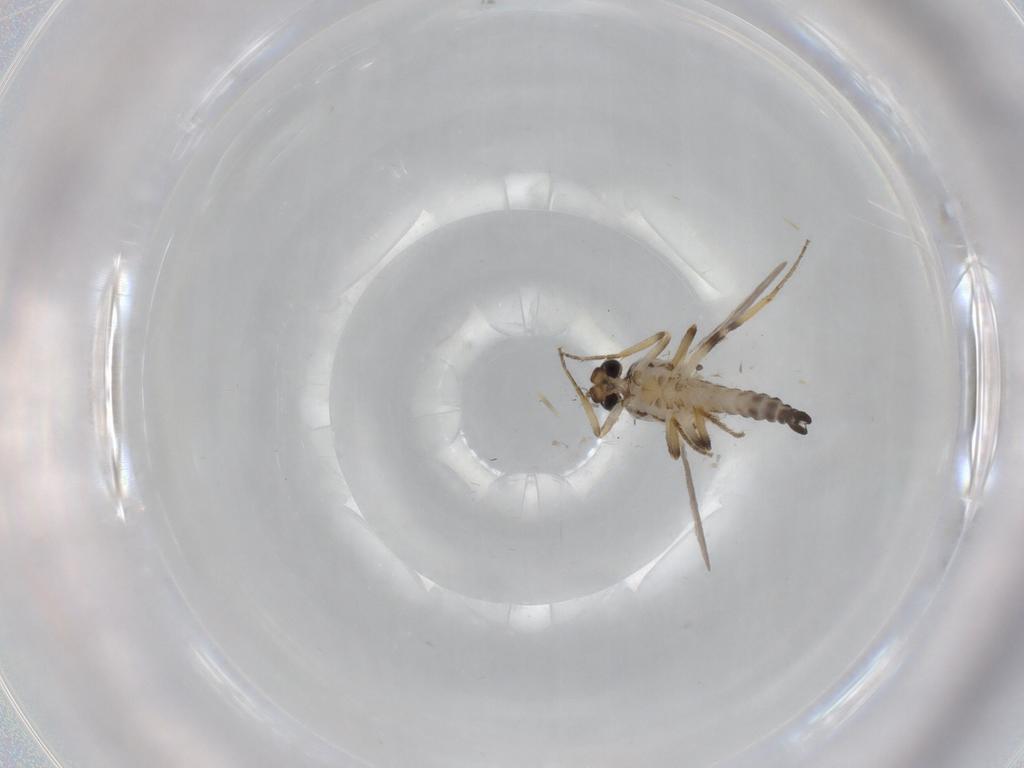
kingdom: Animalia
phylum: Arthropoda
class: Insecta
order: Diptera
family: Ceratopogonidae
